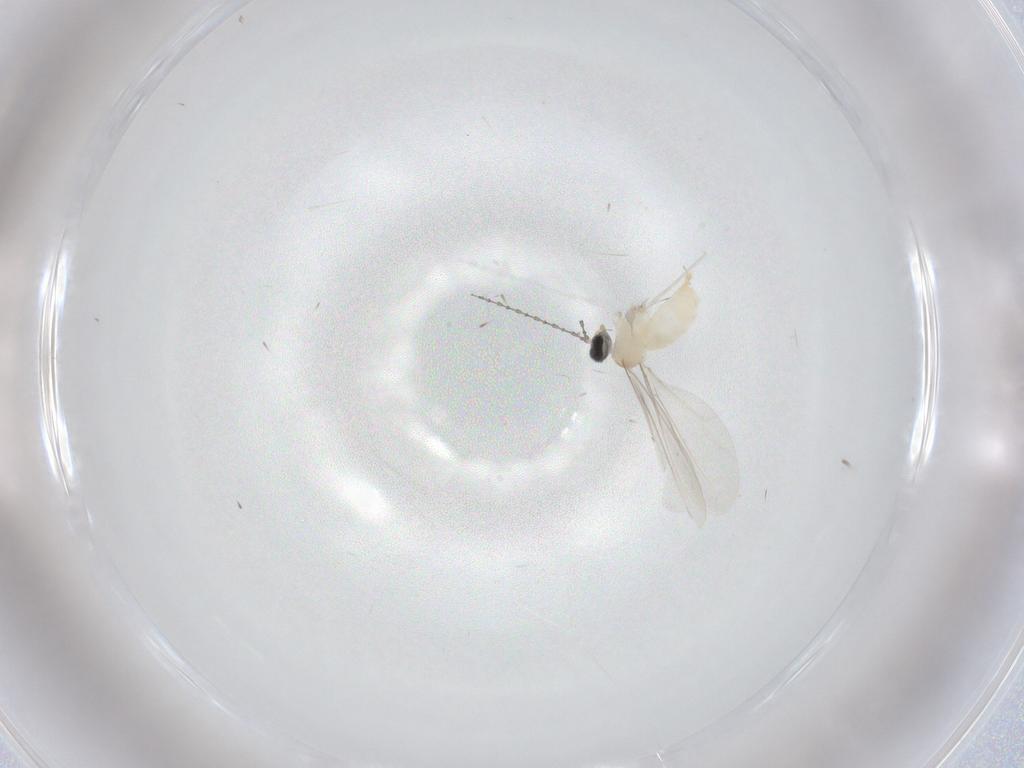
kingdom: Animalia
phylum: Arthropoda
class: Insecta
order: Diptera
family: Cecidomyiidae
